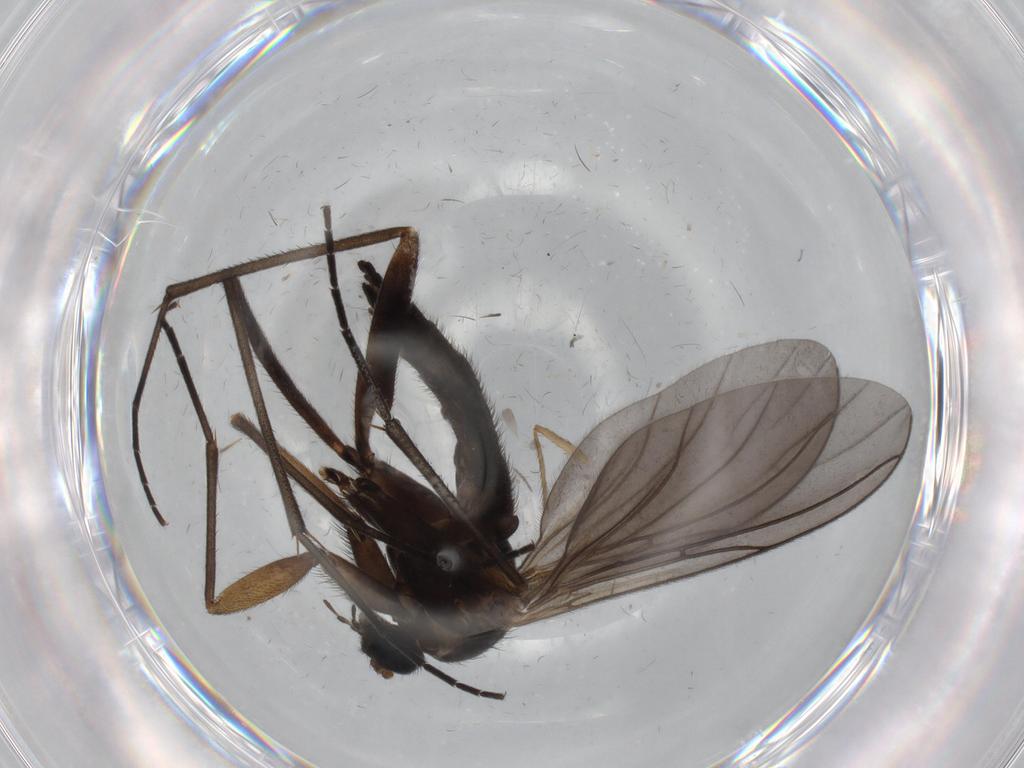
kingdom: Animalia
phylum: Arthropoda
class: Insecta
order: Diptera
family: Chironomidae
